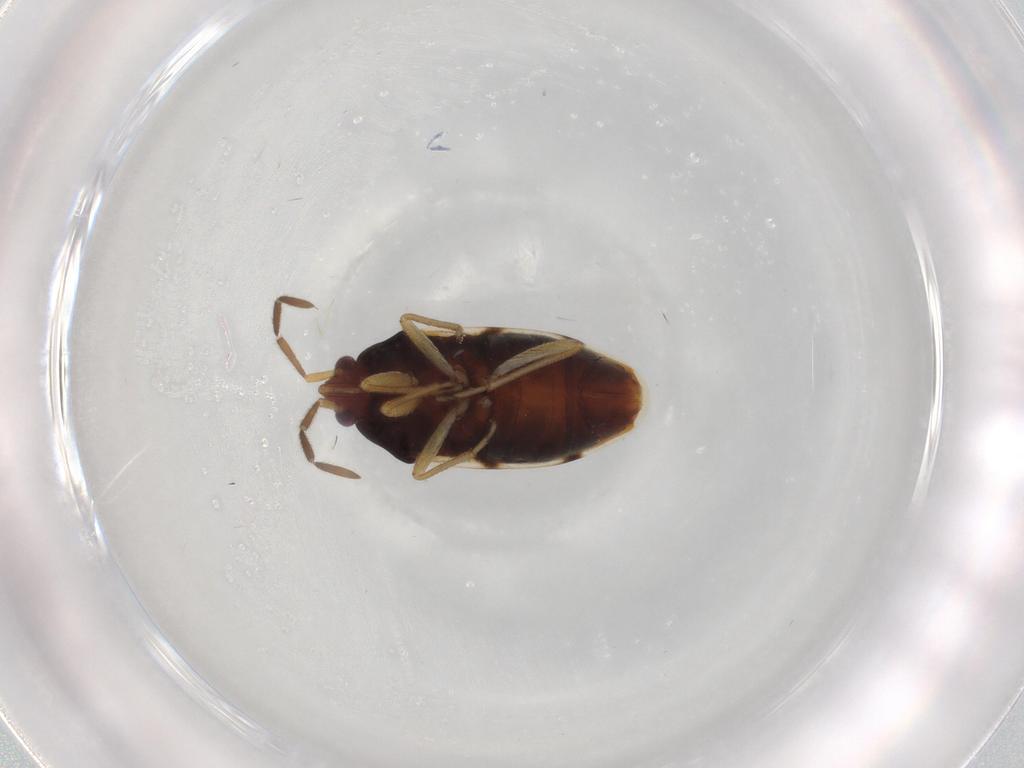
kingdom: Animalia
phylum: Arthropoda
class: Insecta
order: Hemiptera
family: Rhyparochromidae
